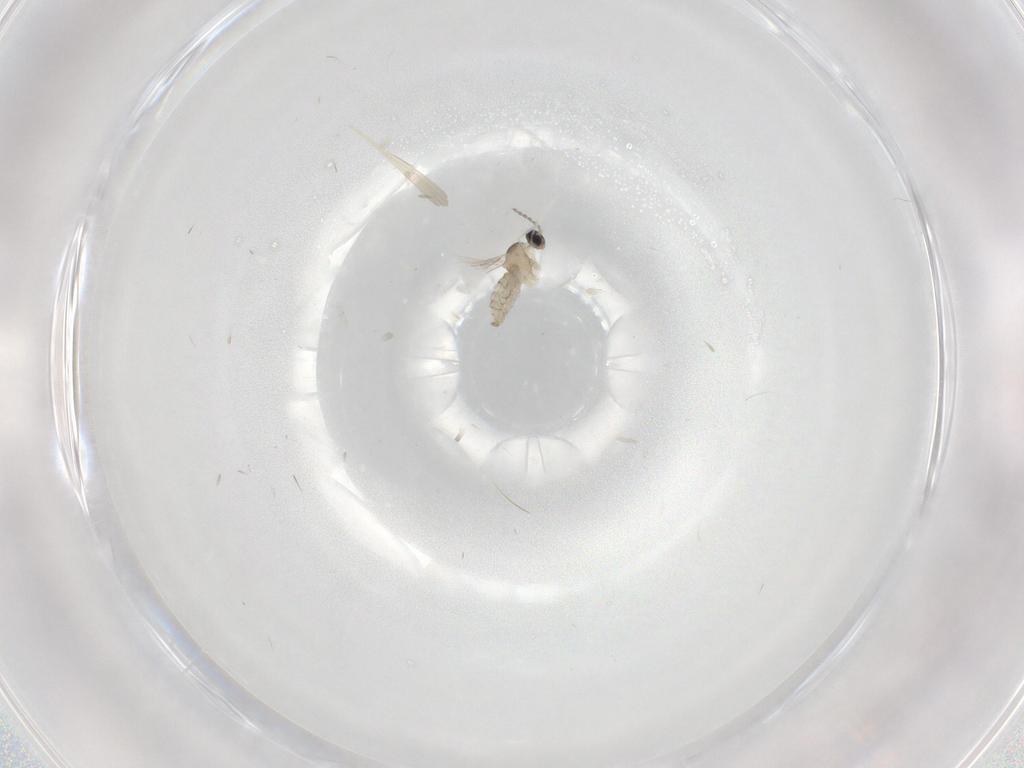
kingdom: Animalia
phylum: Arthropoda
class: Insecta
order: Diptera
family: Cecidomyiidae
